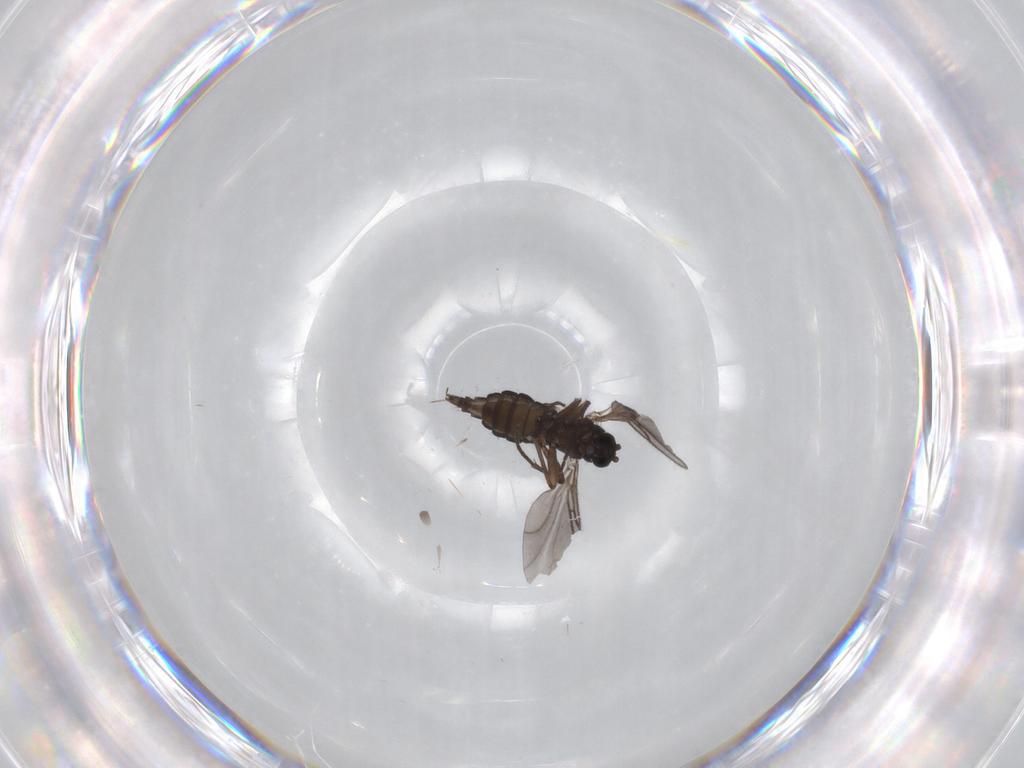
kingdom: Animalia
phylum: Arthropoda
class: Insecta
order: Diptera
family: Sciaridae
